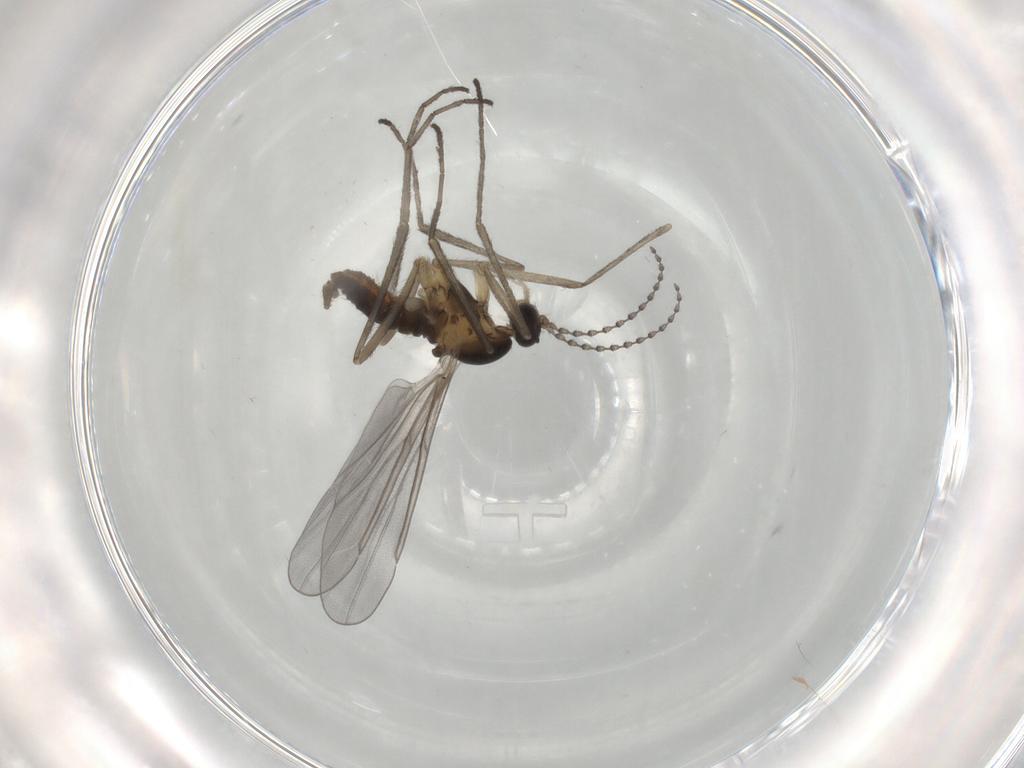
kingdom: Animalia
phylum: Arthropoda
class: Insecta
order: Diptera
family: Cecidomyiidae
